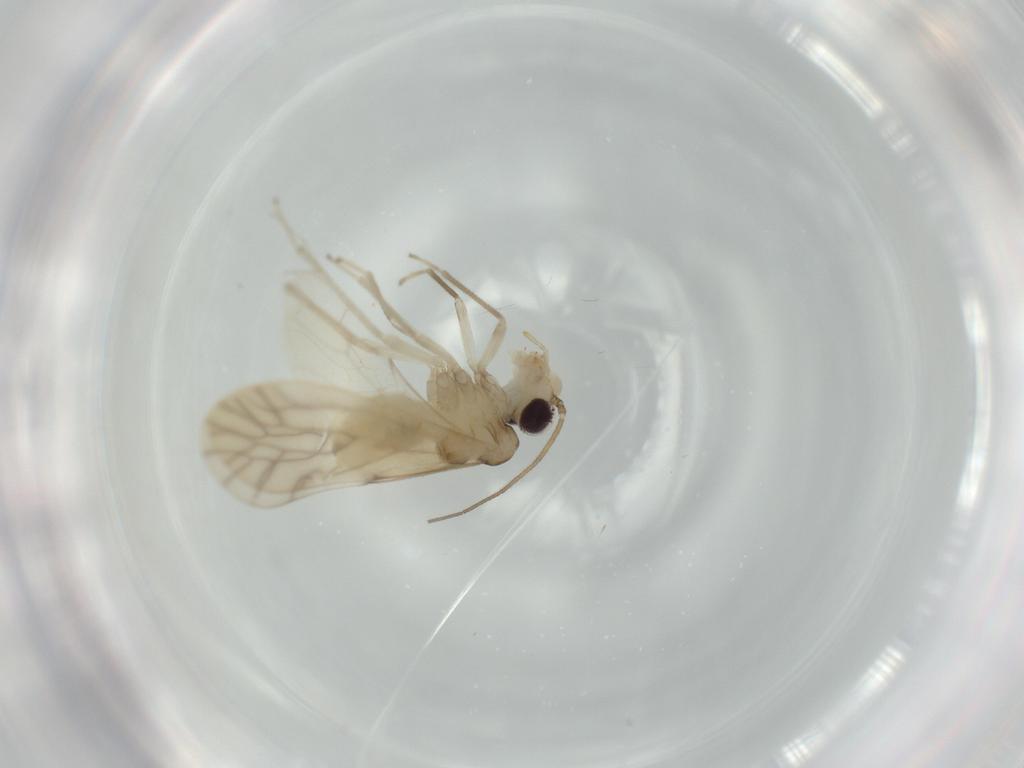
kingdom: Animalia
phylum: Arthropoda
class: Insecta
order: Psocodea
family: Caeciliusidae
